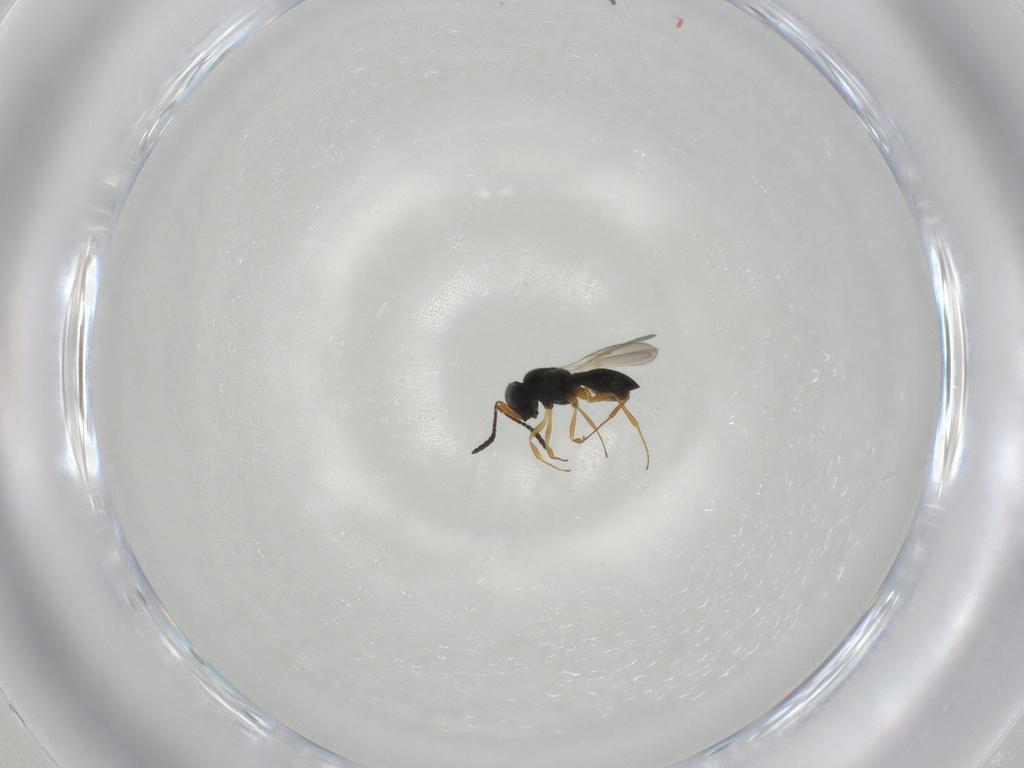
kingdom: Animalia
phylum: Arthropoda
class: Insecta
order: Hymenoptera
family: Scelionidae
